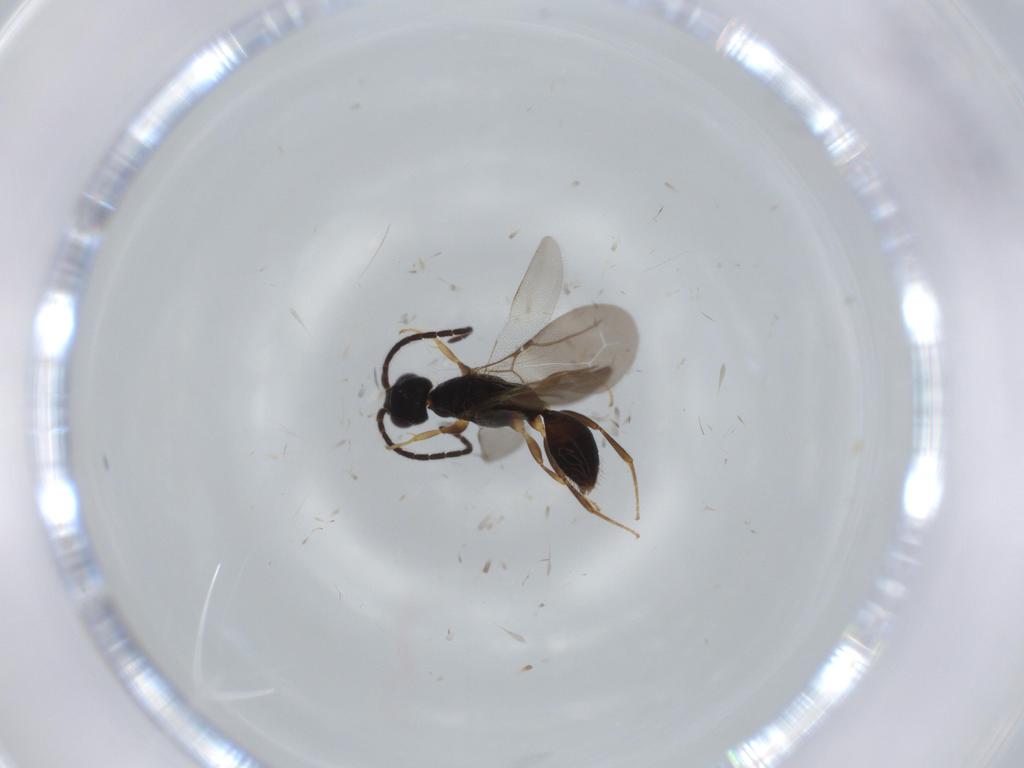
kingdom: Animalia
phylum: Arthropoda
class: Insecta
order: Hymenoptera
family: Bethylidae
